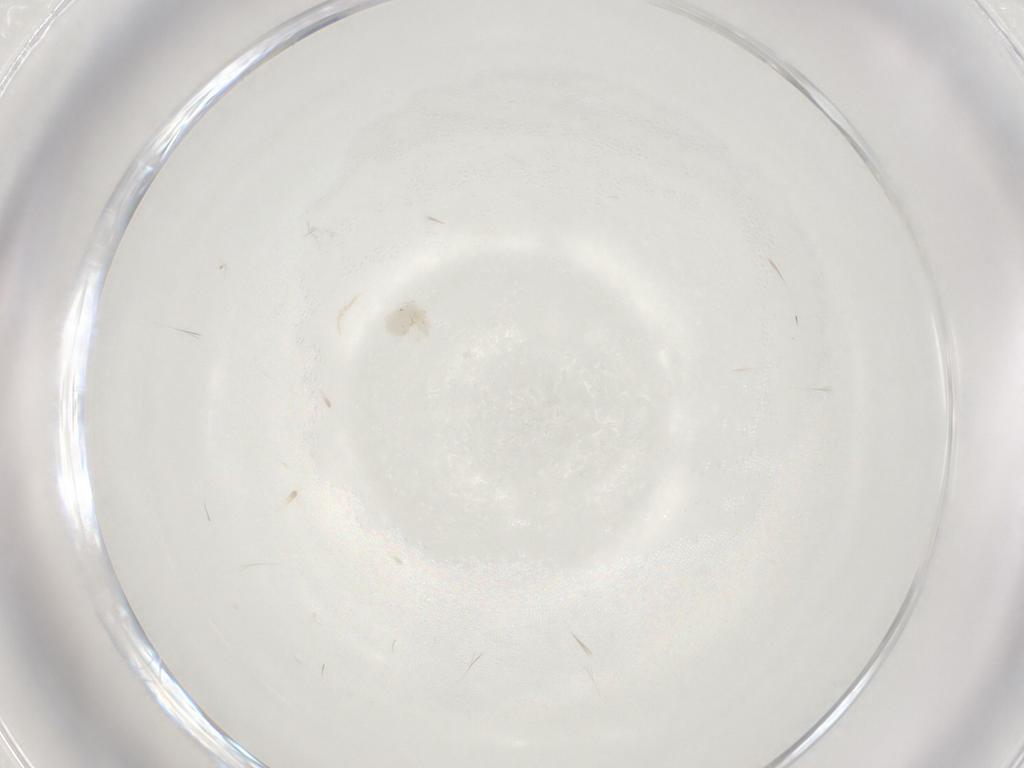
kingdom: Animalia
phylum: Arthropoda
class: Arachnida
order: Trombidiformes
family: Anystidae
